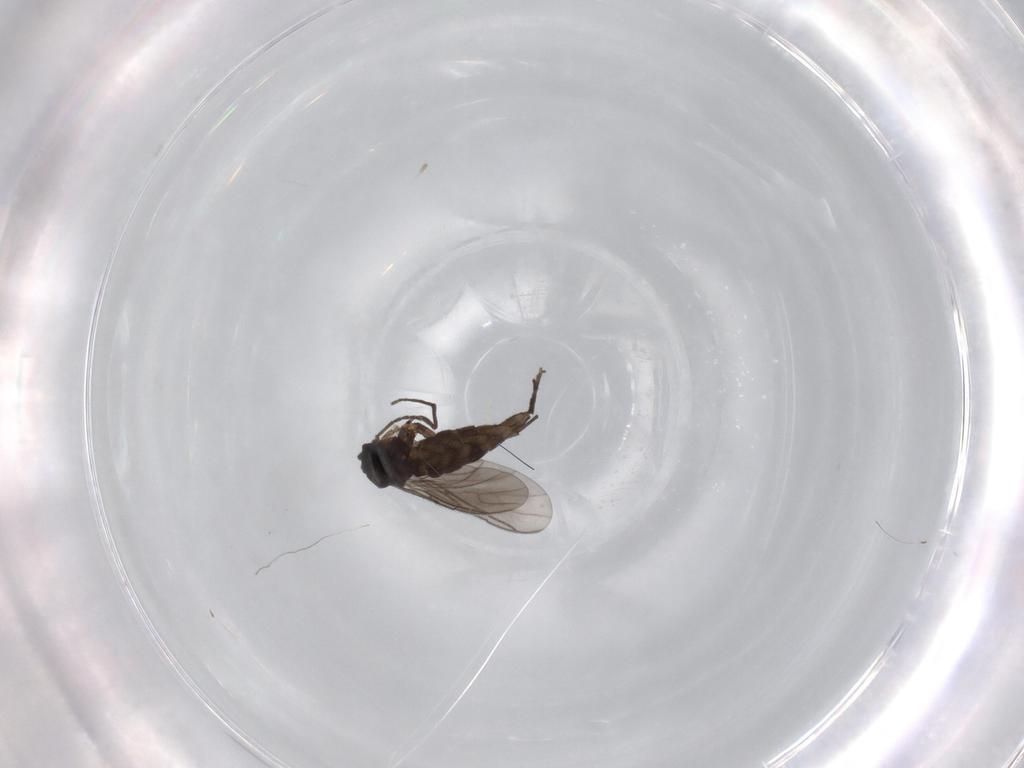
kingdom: Animalia
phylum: Arthropoda
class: Insecta
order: Diptera
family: Sciaridae
